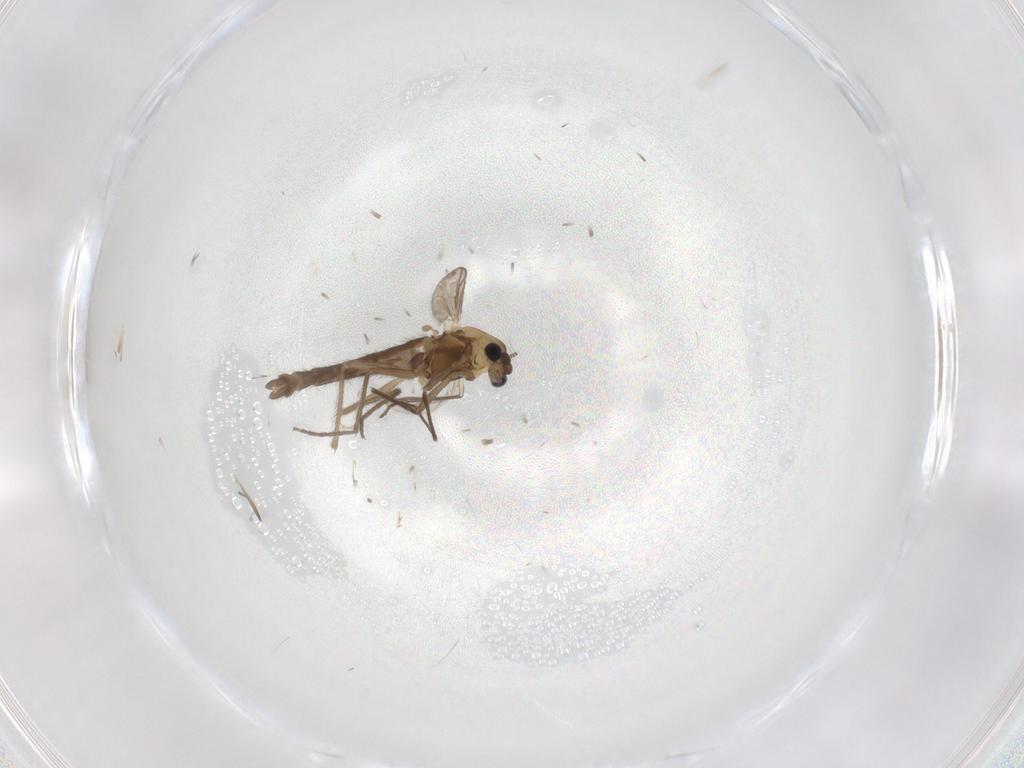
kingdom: Animalia
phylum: Arthropoda
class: Insecta
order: Diptera
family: Chironomidae
